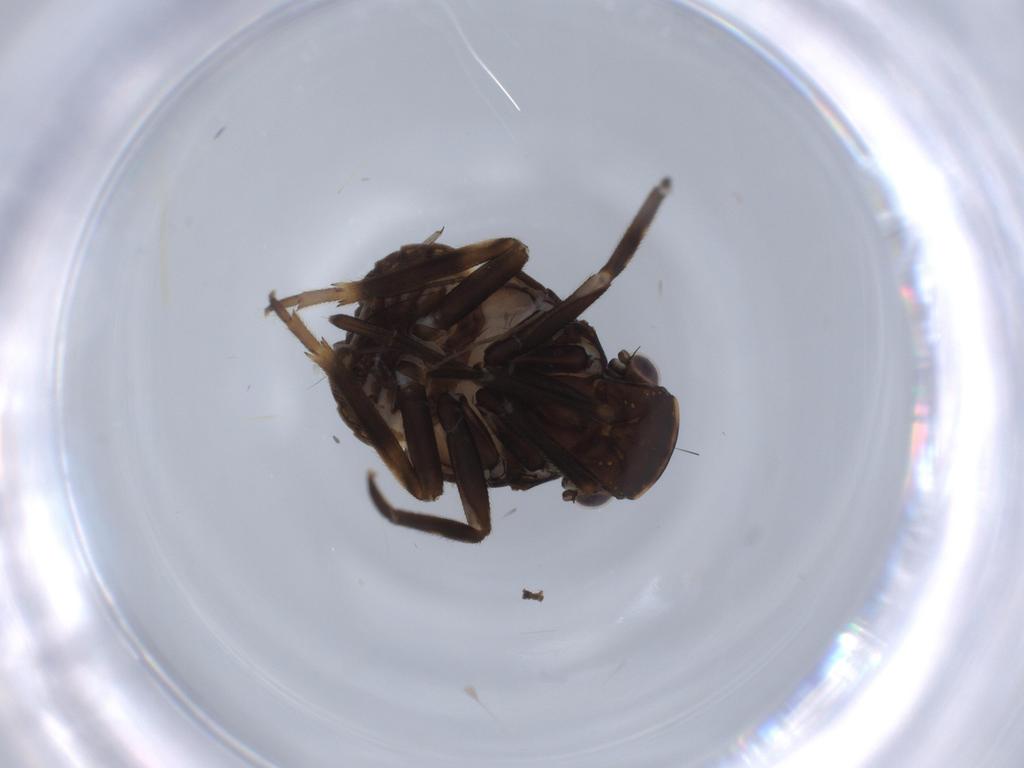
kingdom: Animalia
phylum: Arthropoda
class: Insecta
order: Hemiptera
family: Fulgoridae
